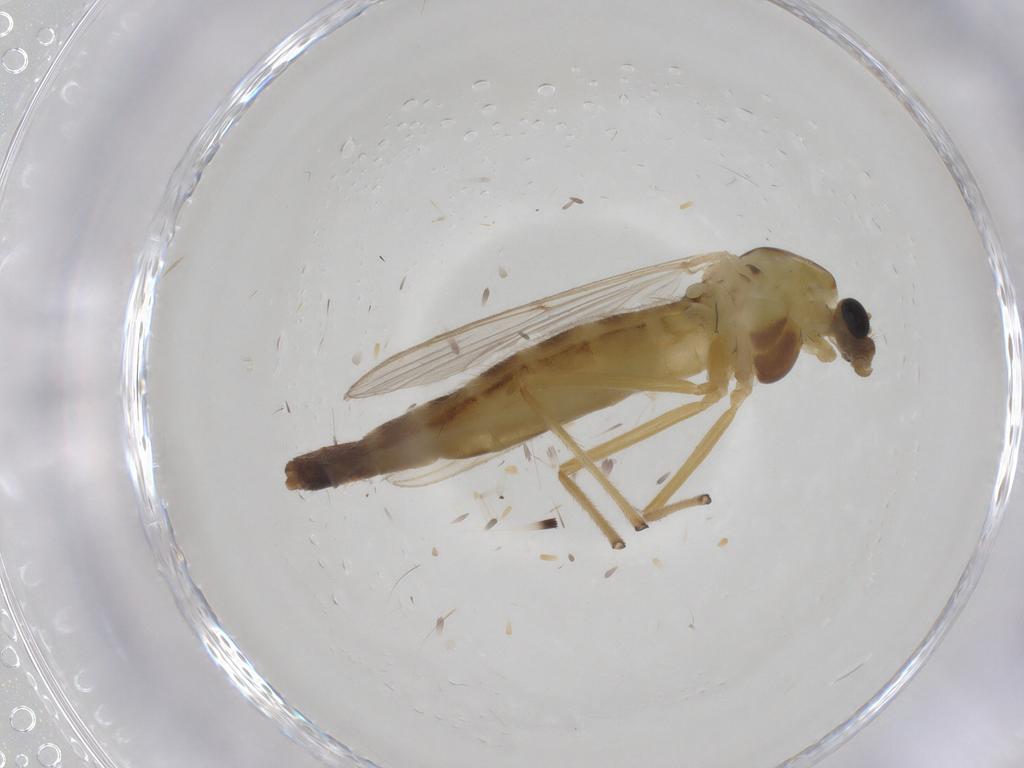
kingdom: Animalia
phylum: Arthropoda
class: Insecta
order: Diptera
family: Chironomidae
